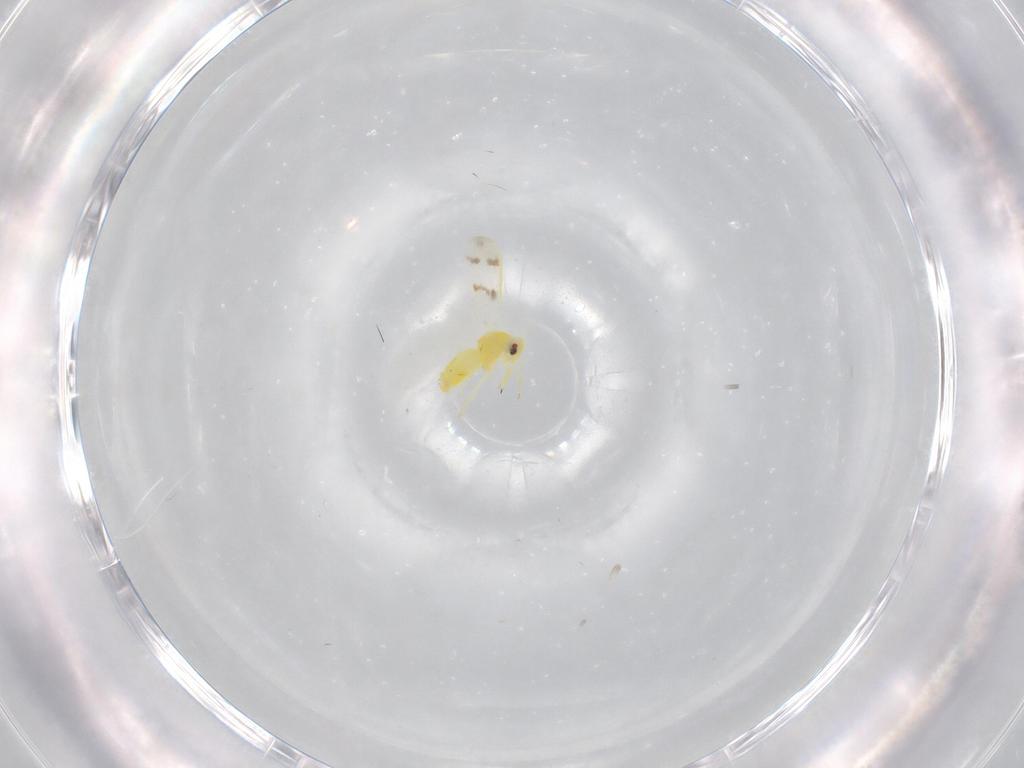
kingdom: Animalia
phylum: Arthropoda
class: Insecta
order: Hemiptera
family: Aleyrodidae
